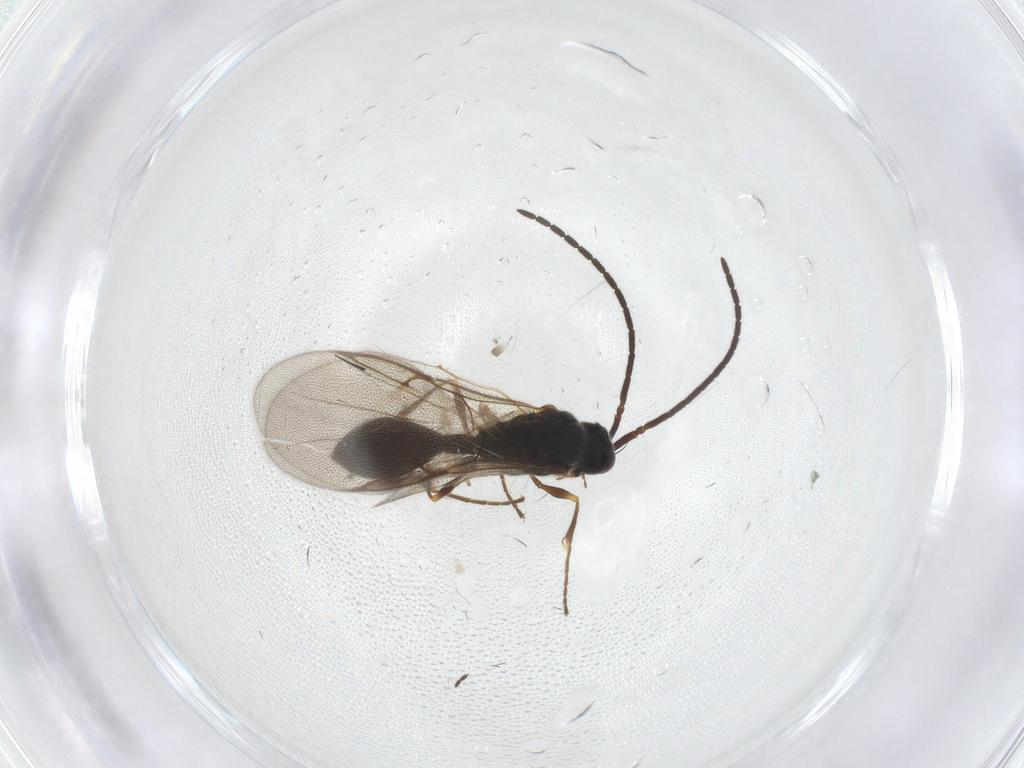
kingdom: Animalia
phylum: Arthropoda
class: Insecta
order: Hymenoptera
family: Diapriidae
